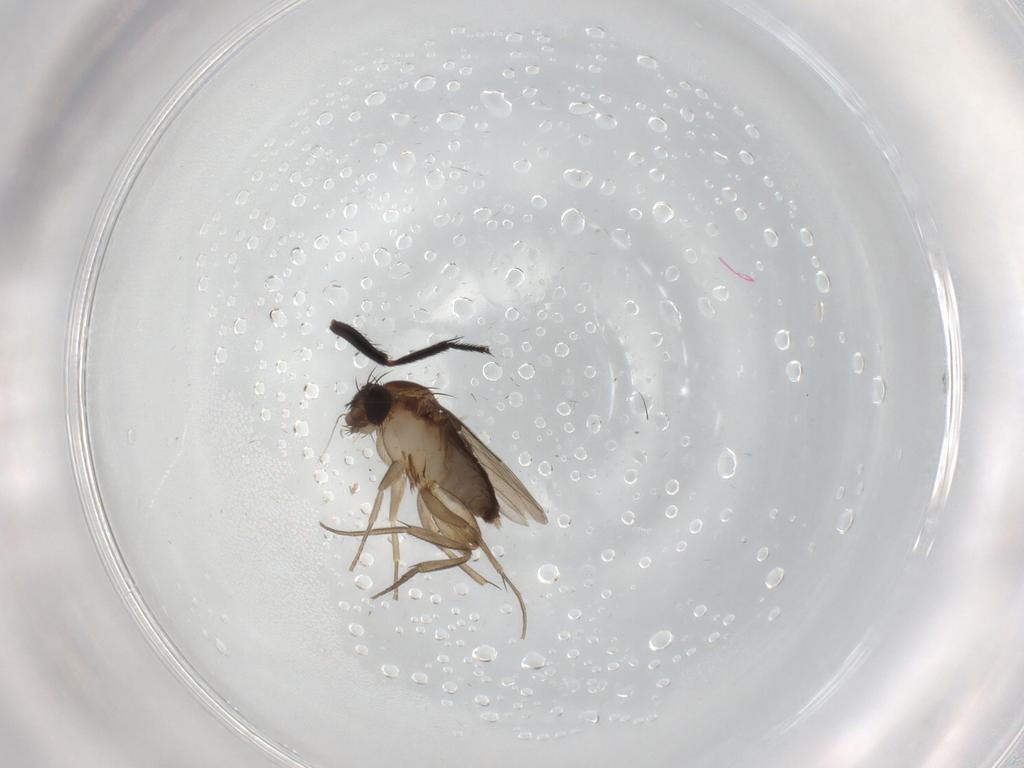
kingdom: Animalia
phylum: Arthropoda
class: Insecta
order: Diptera
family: Phoridae
